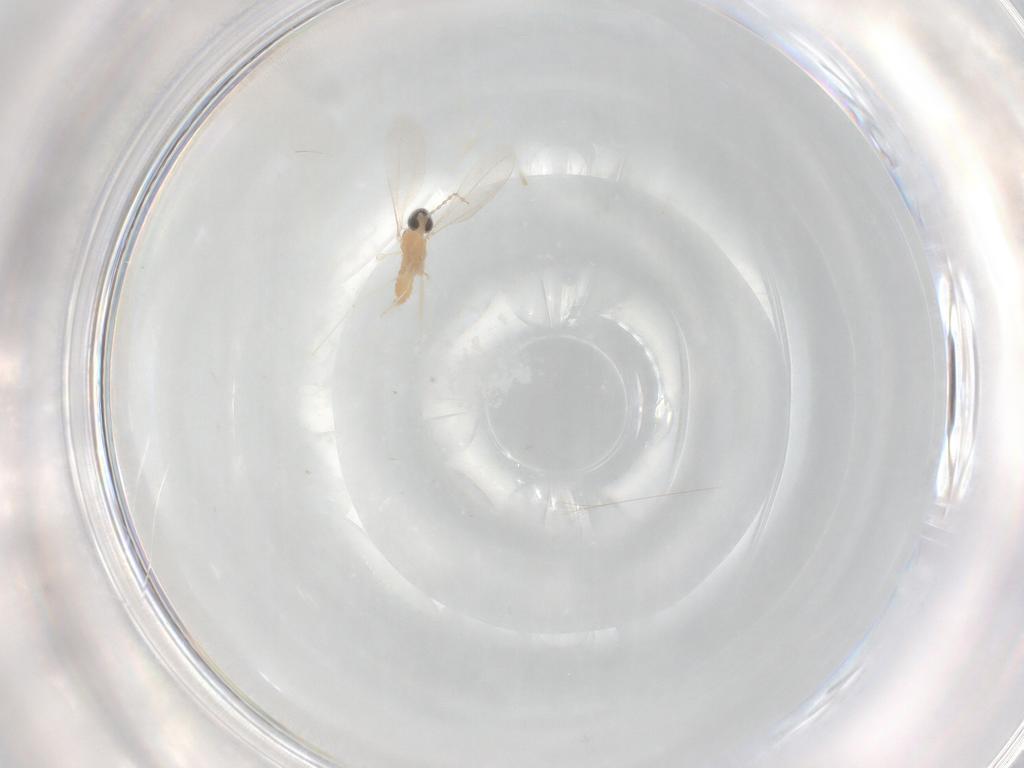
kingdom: Animalia
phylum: Arthropoda
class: Insecta
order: Diptera
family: Cecidomyiidae
